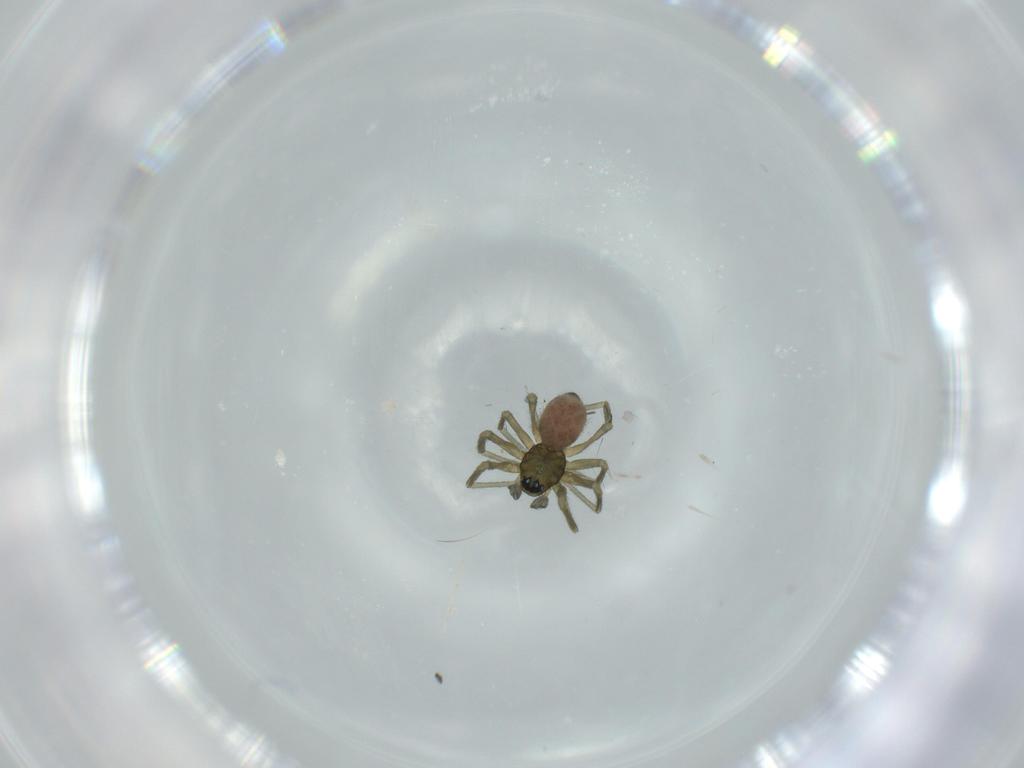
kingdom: Animalia
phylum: Arthropoda
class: Arachnida
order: Araneae
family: Linyphiidae
